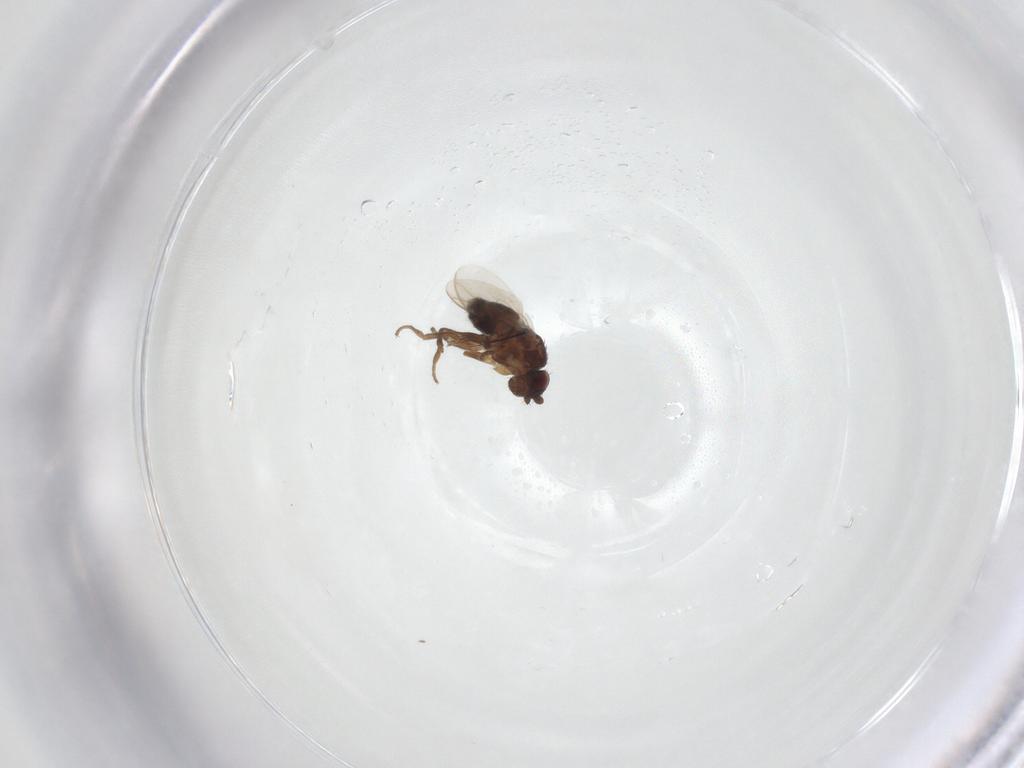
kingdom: Animalia
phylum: Arthropoda
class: Insecta
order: Diptera
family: Sphaeroceridae
